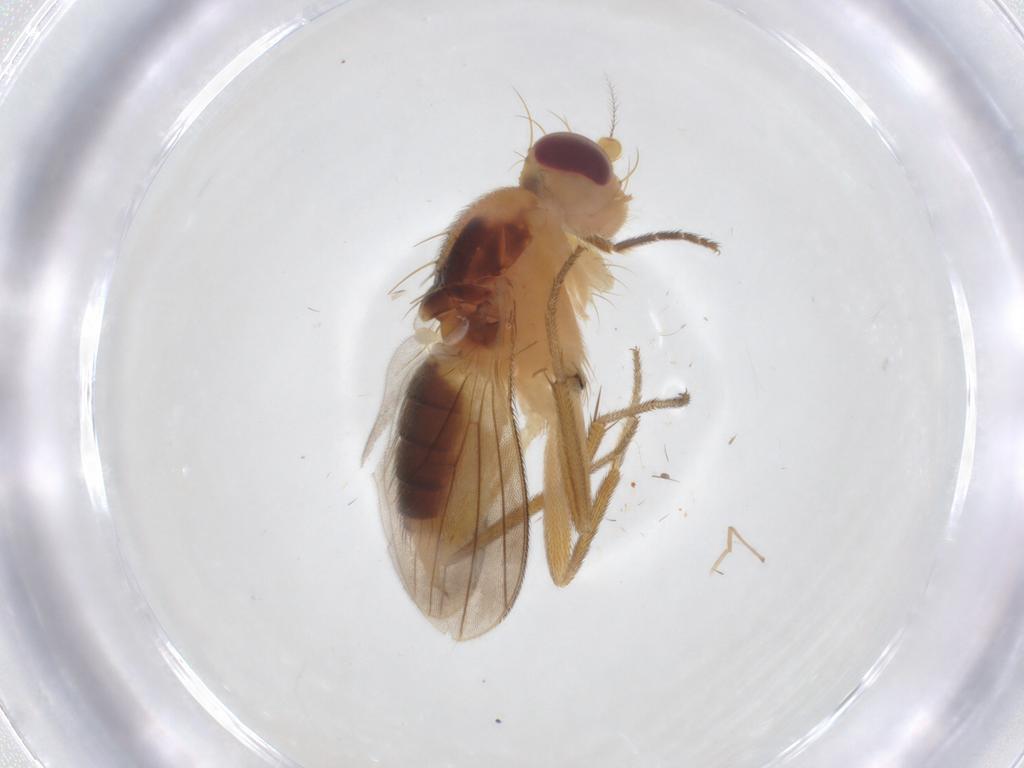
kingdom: Animalia
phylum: Arthropoda
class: Insecta
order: Diptera
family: Agromyzidae
